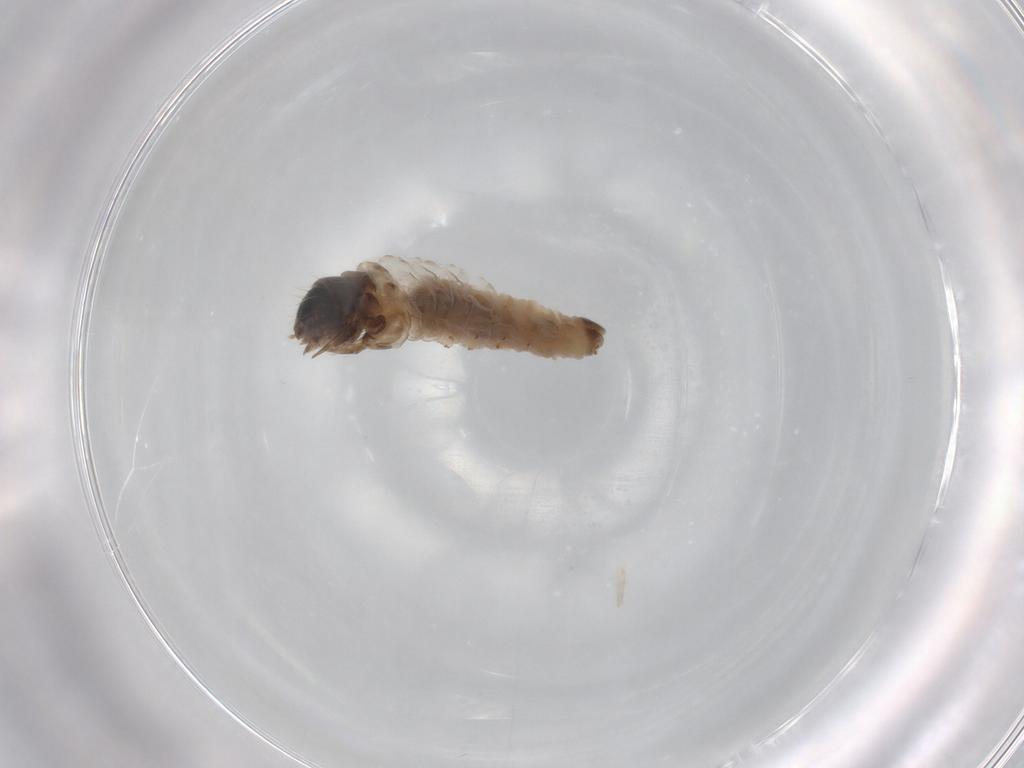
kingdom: Animalia
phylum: Arthropoda
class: Insecta
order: Lepidoptera
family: Psychidae
